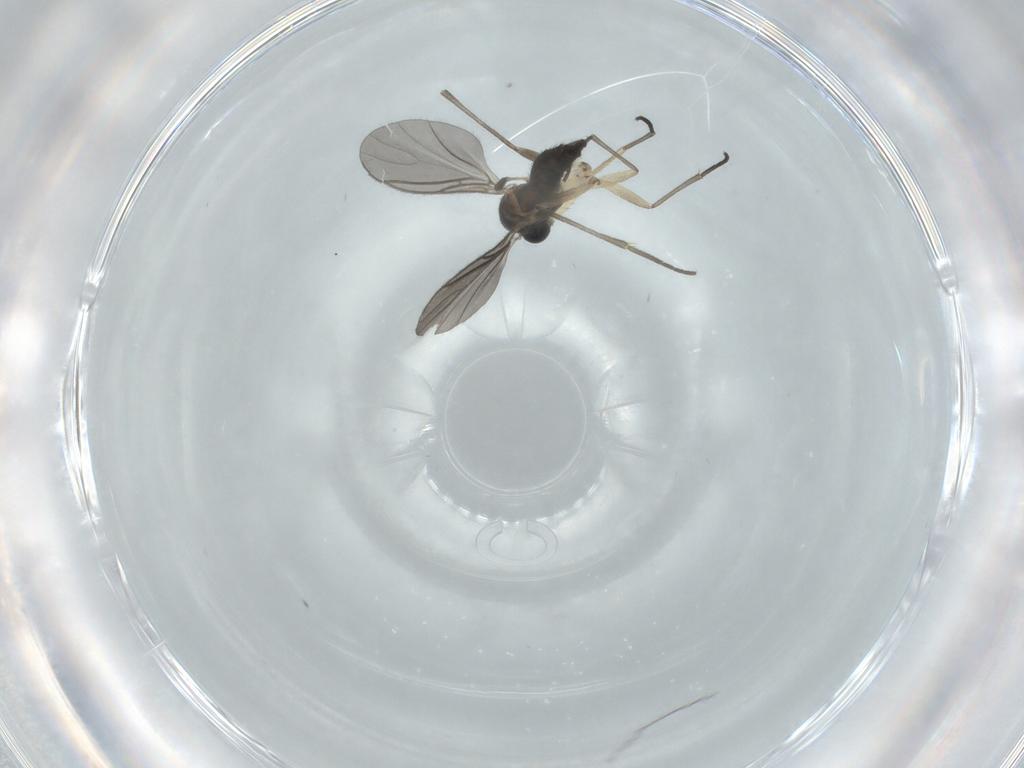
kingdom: Animalia
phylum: Arthropoda
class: Insecta
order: Diptera
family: Sciaridae
